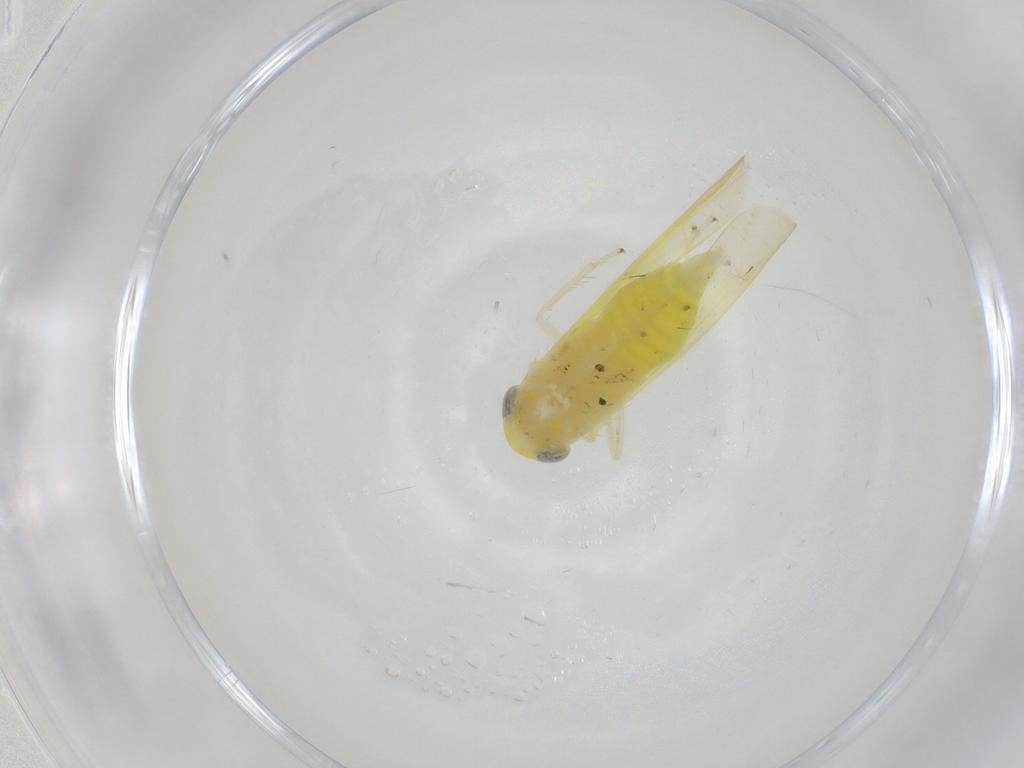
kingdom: Animalia
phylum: Arthropoda
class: Insecta
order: Hemiptera
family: Cicadellidae
